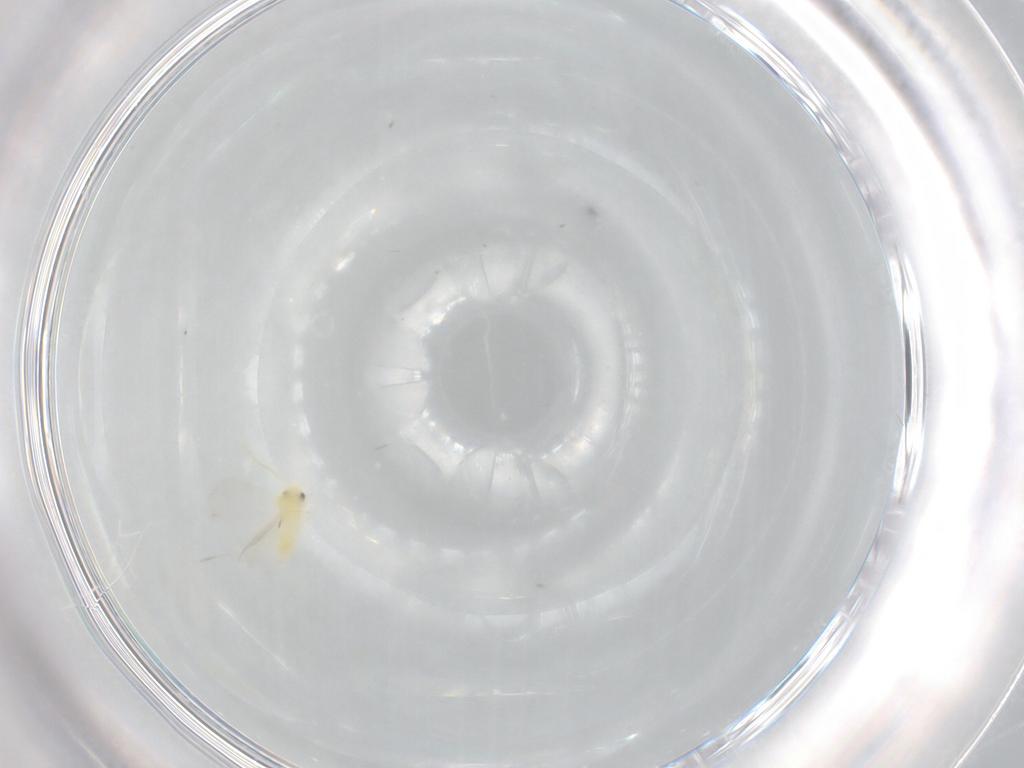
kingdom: Animalia
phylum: Arthropoda
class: Insecta
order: Hemiptera
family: Aleyrodidae
